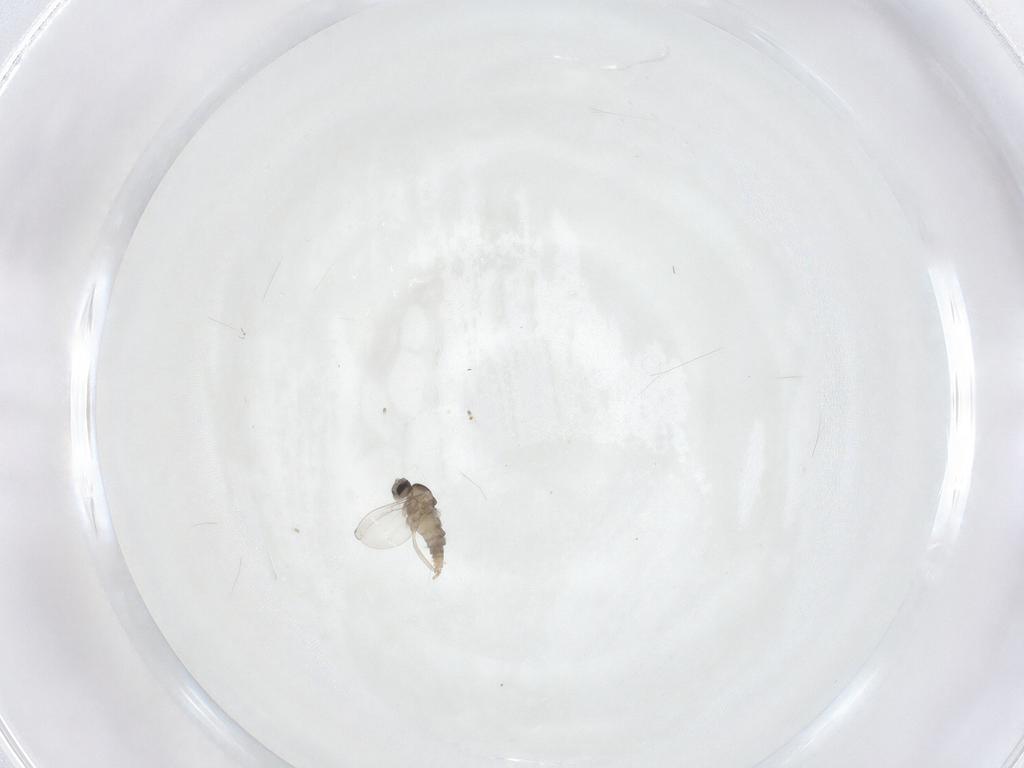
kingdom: Animalia
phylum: Arthropoda
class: Insecta
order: Diptera
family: Cecidomyiidae
